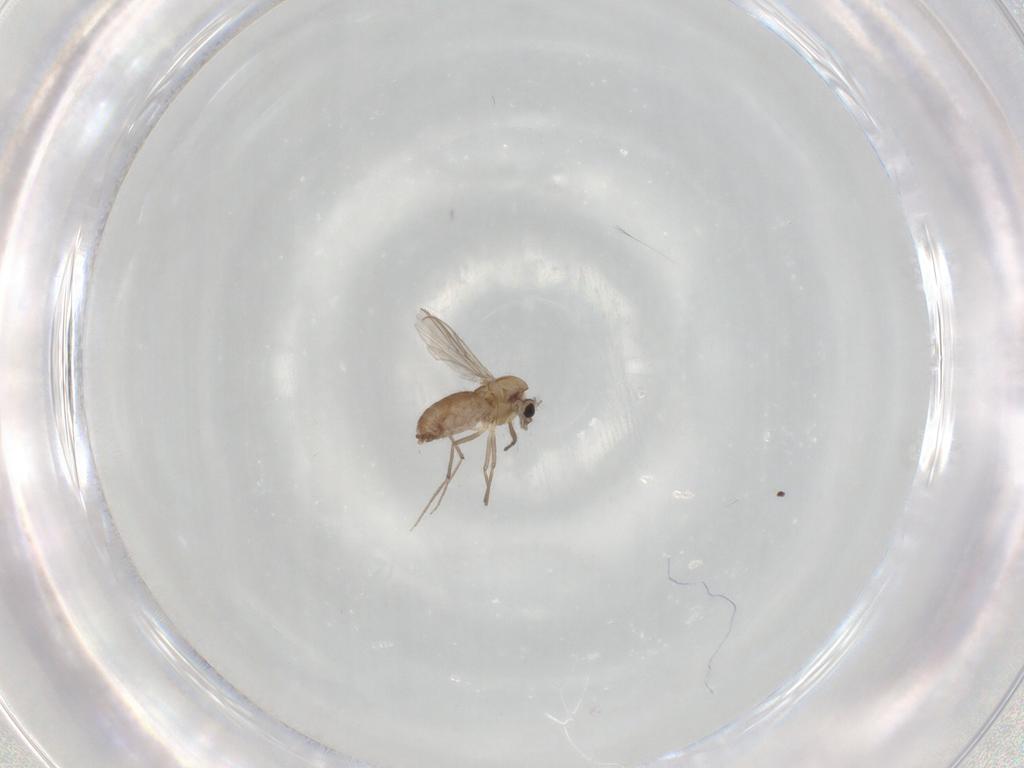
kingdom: Animalia
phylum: Arthropoda
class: Insecta
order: Diptera
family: Chironomidae
